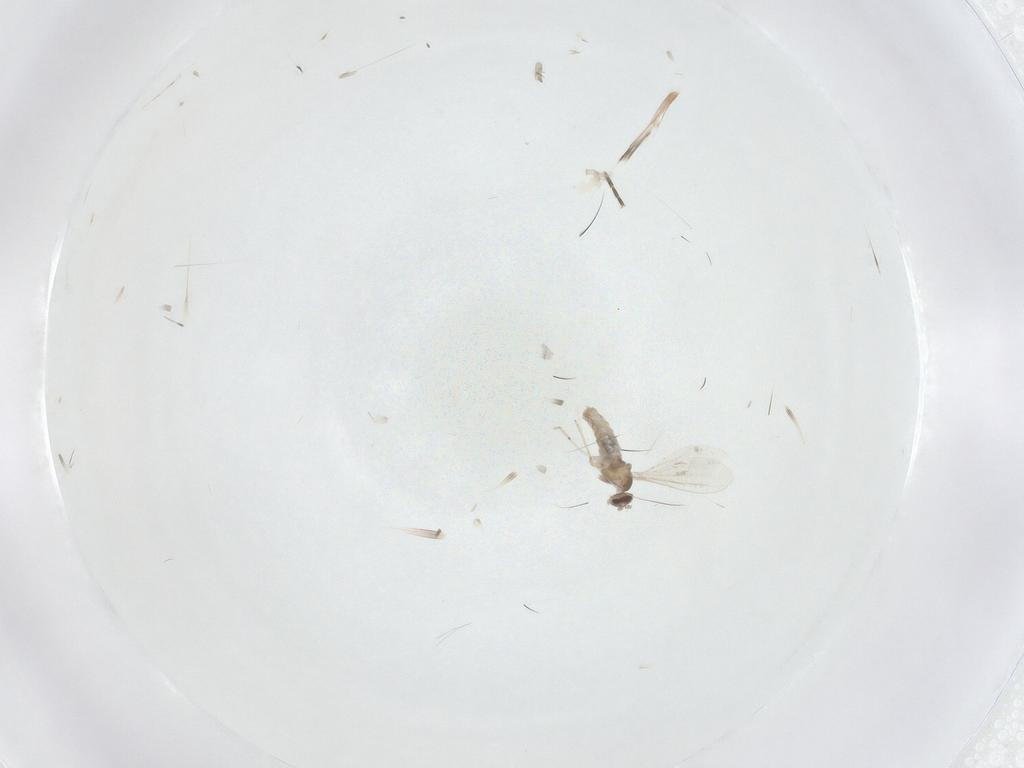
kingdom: Animalia
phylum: Arthropoda
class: Insecta
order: Diptera
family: Cecidomyiidae
